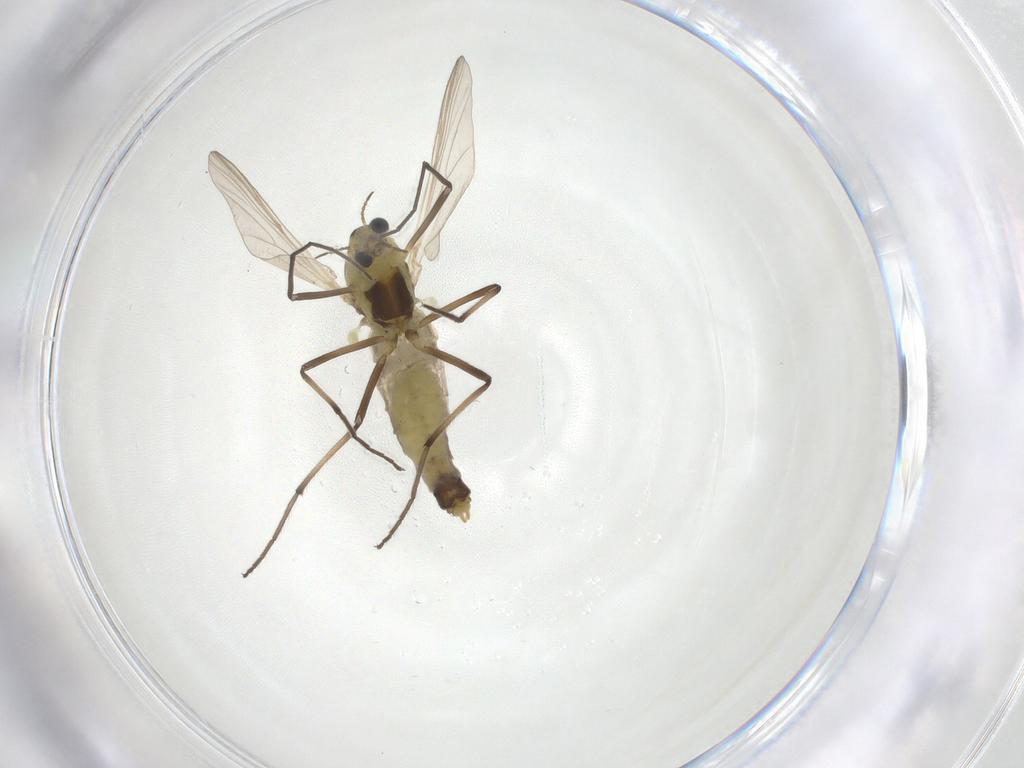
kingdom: Animalia
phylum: Arthropoda
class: Insecta
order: Diptera
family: Cecidomyiidae
